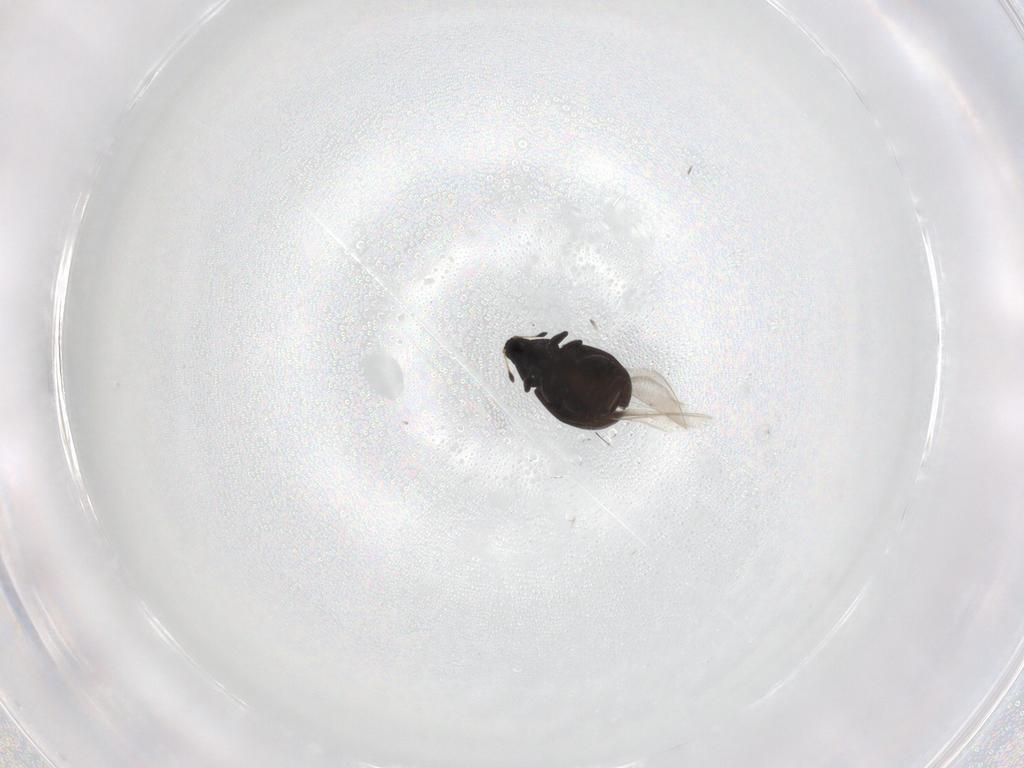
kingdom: Animalia
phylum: Arthropoda
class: Insecta
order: Coleoptera
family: Curculionidae
